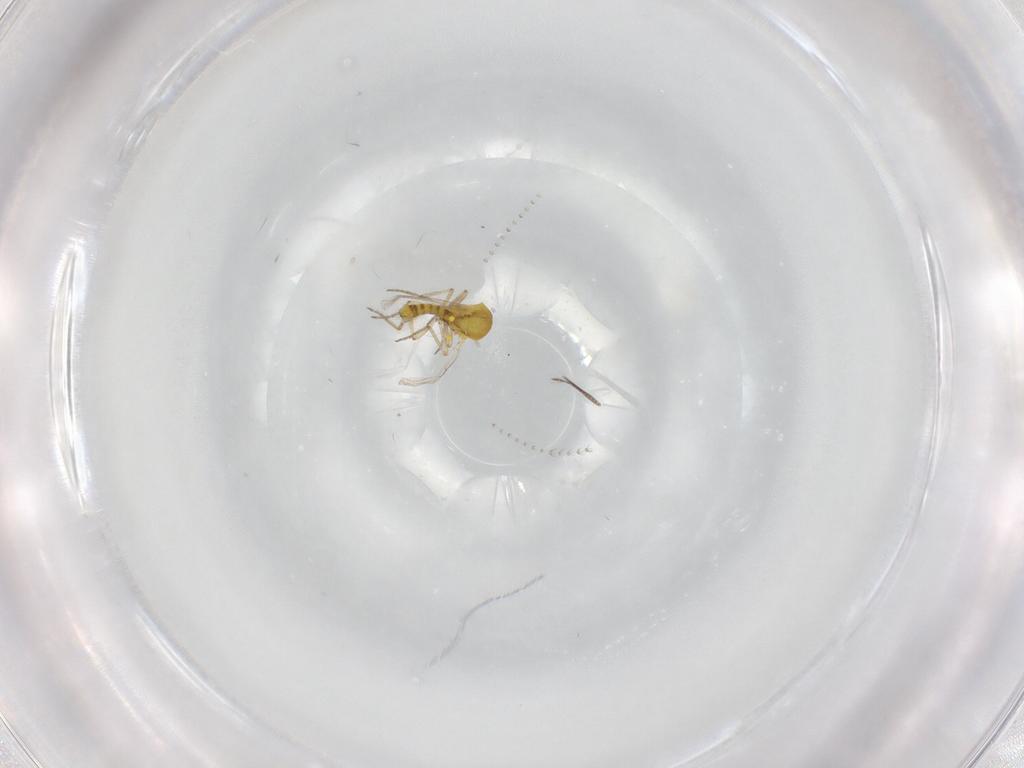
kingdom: Animalia
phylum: Arthropoda
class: Insecta
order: Diptera
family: Ceratopogonidae
